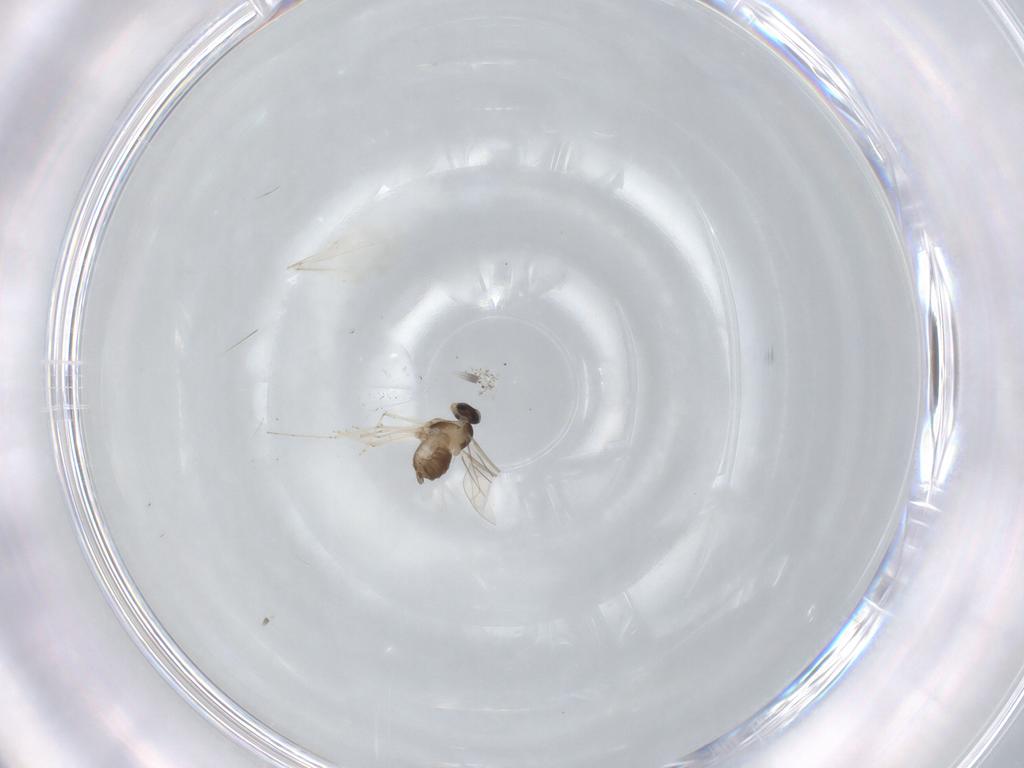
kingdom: Animalia
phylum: Arthropoda
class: Insecta
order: Diptera
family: Cecidomyiidae
